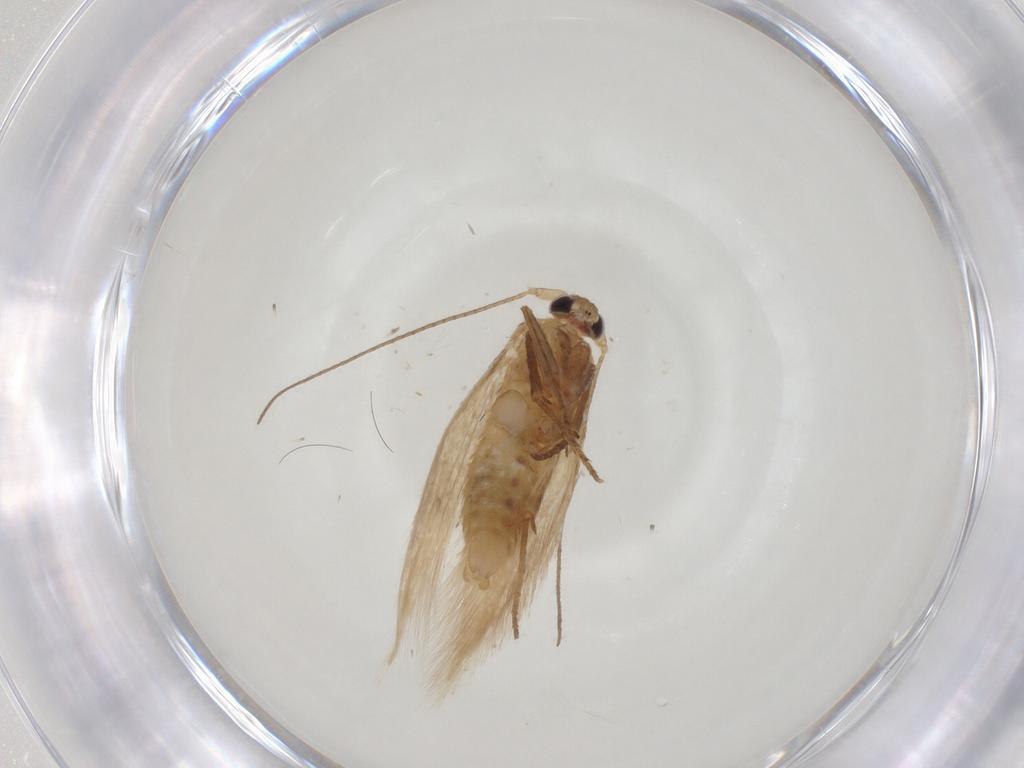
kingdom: Animalia
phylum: Arthropoda
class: Insecta
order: Lepidoptera
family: Bucculatricidae
